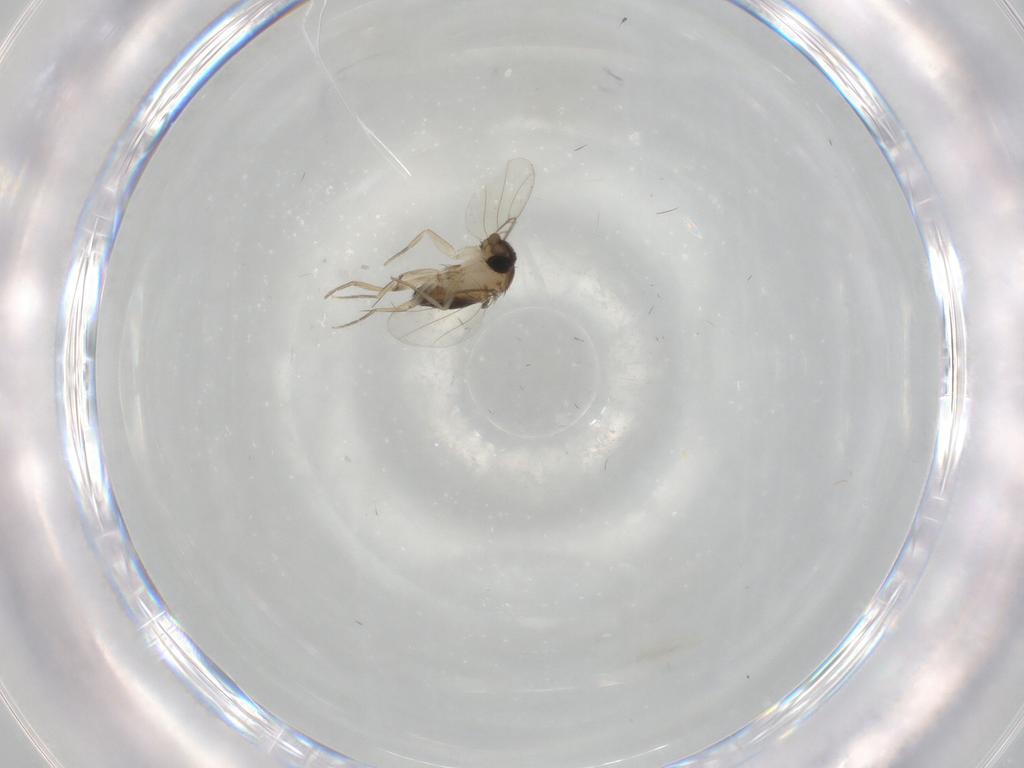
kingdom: Animalia
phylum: Arthropoda
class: Insecta
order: Diptera
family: Phoridae
